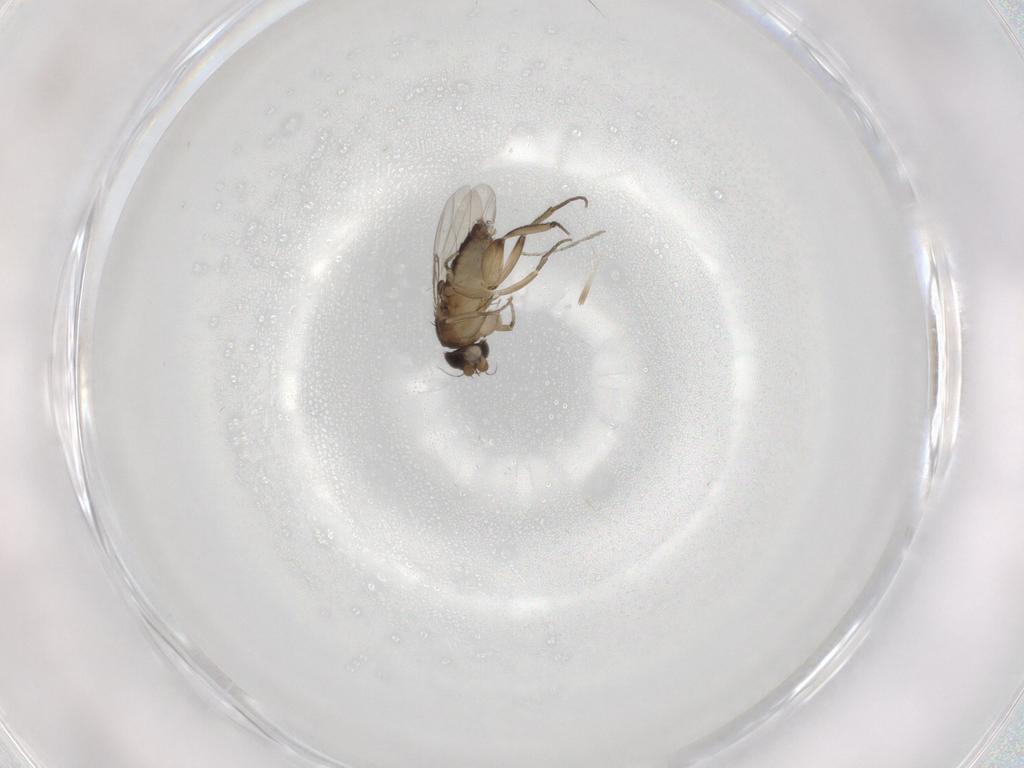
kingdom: Animalia
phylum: Arthropoda
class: Insecta
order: Diptera
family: Phoridae
